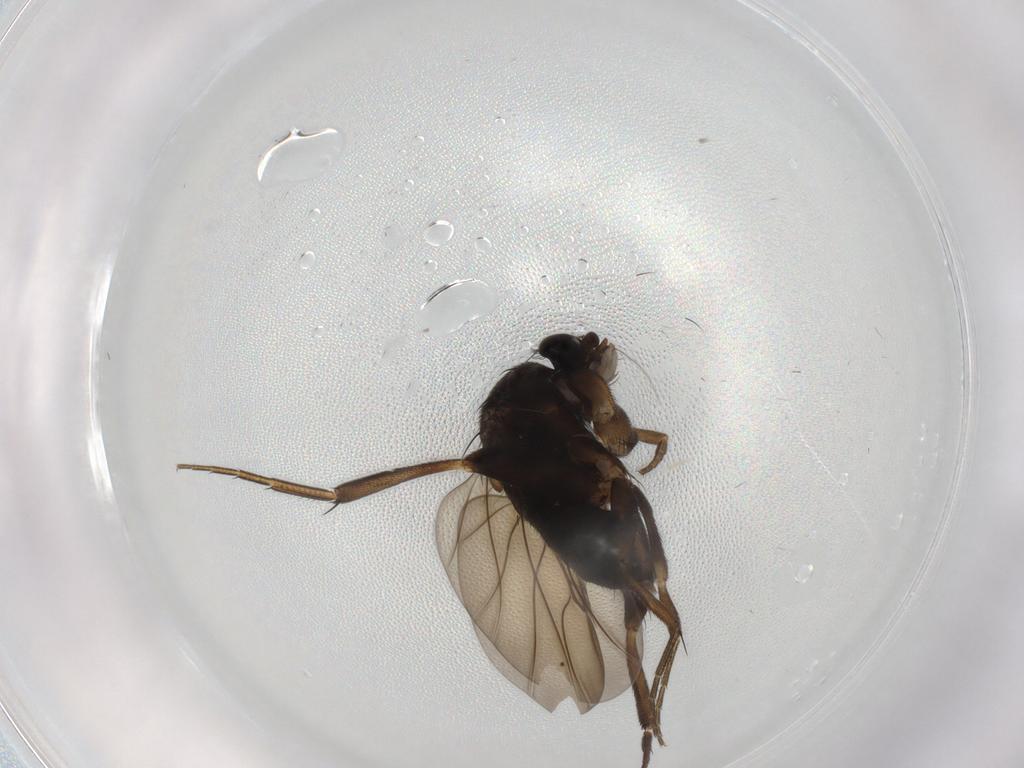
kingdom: Animalia
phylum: Arthropoda
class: Insecta
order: Diptera
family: Phoridae
